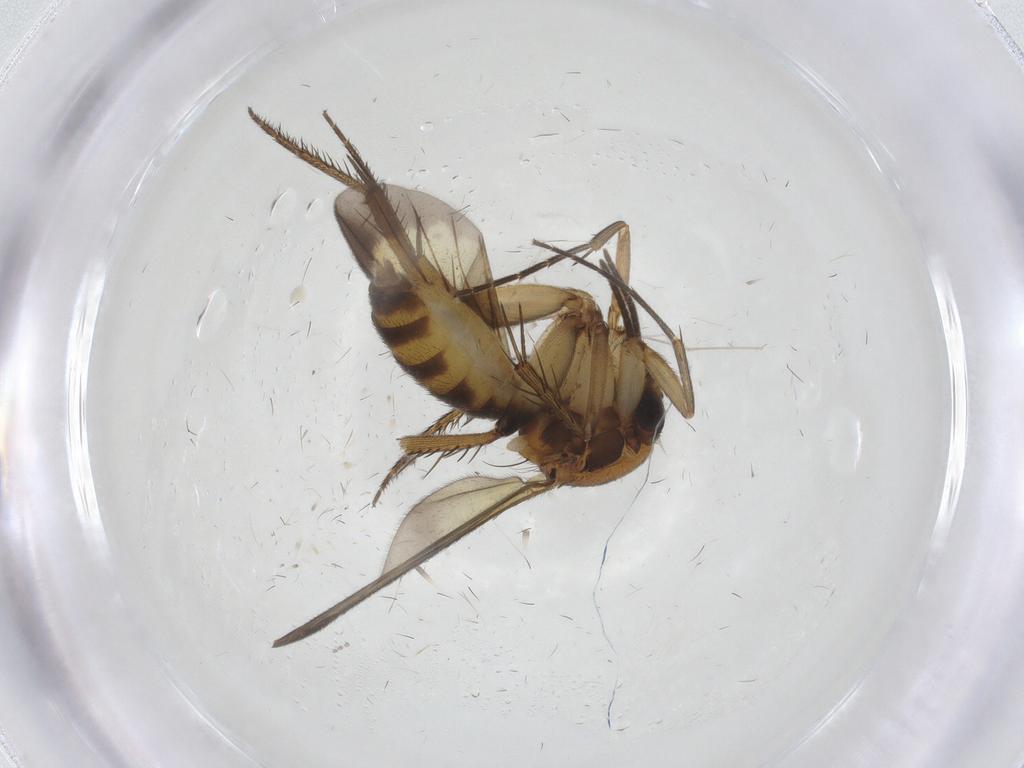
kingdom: Animalia
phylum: Arthropoda
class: Insecta
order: Diptera
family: Mycetophilidae
